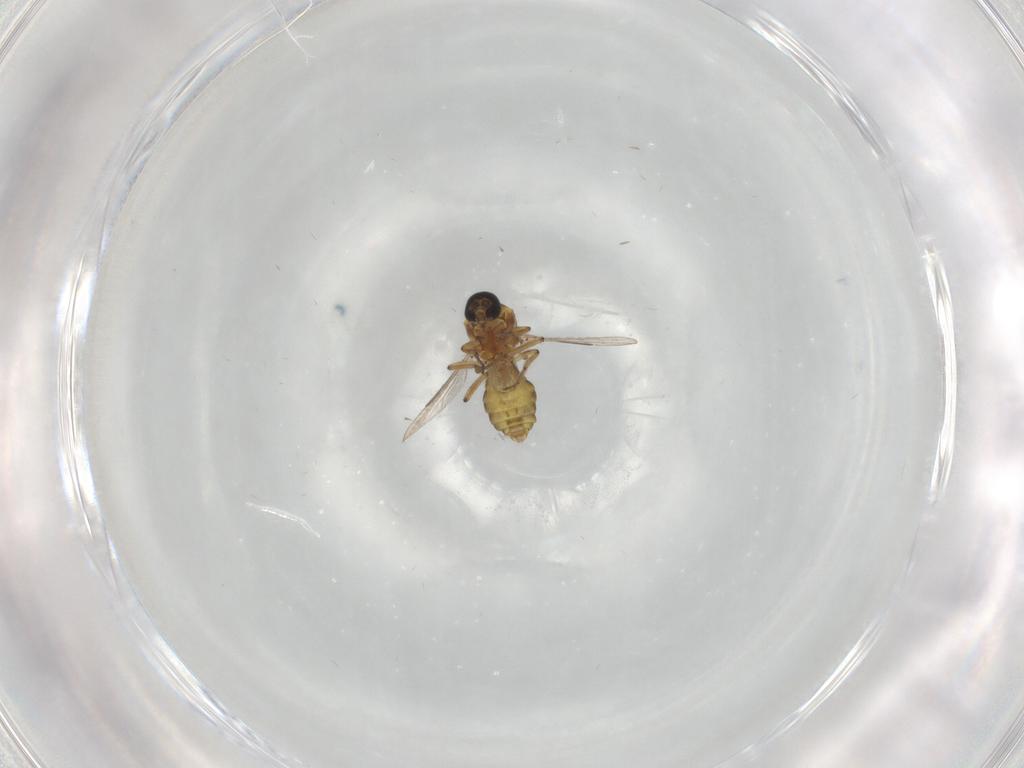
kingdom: Animalia
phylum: Arthropoda
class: Insecta
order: Diptera
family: Ceratopogonidae
